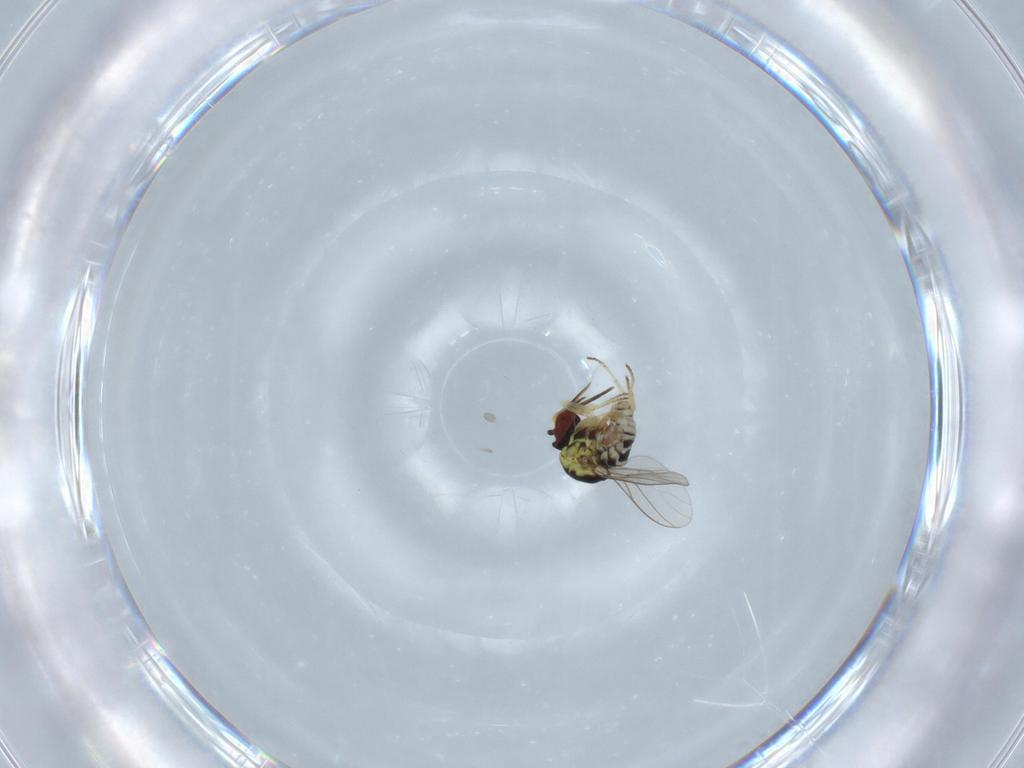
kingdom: Animalia
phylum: Arthropoda
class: Insecta
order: Diptera
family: Bombyliidae
